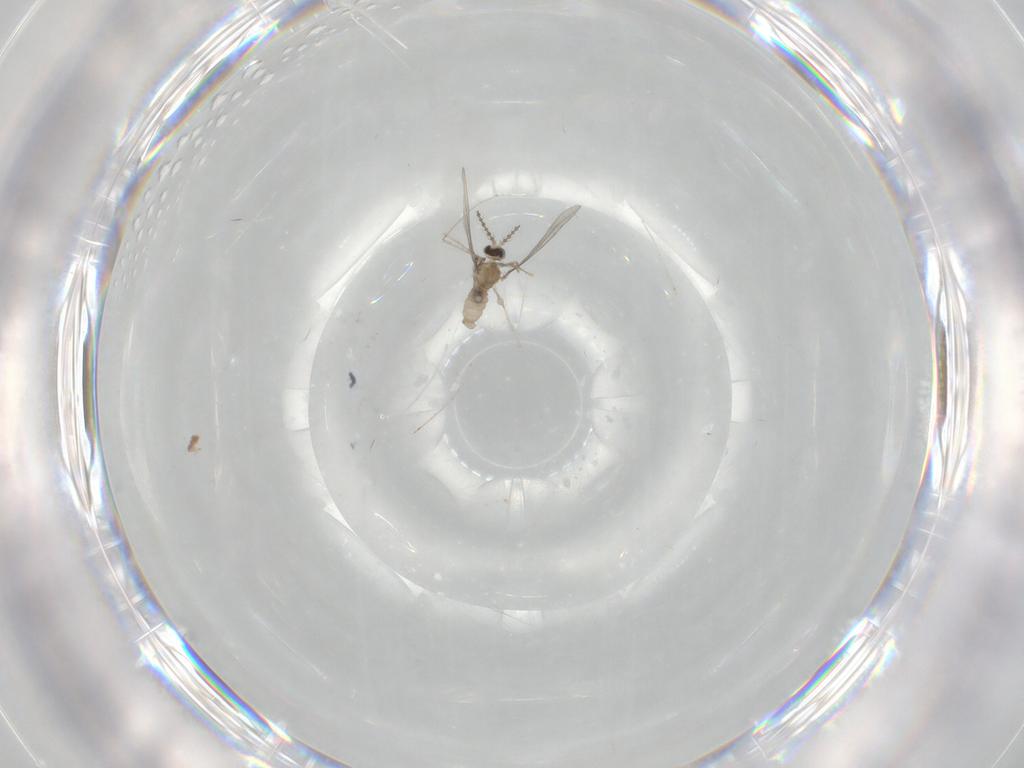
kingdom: Animalia
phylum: Arthropoda
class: Insecta
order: Diptera
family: Cecidomyiidae
